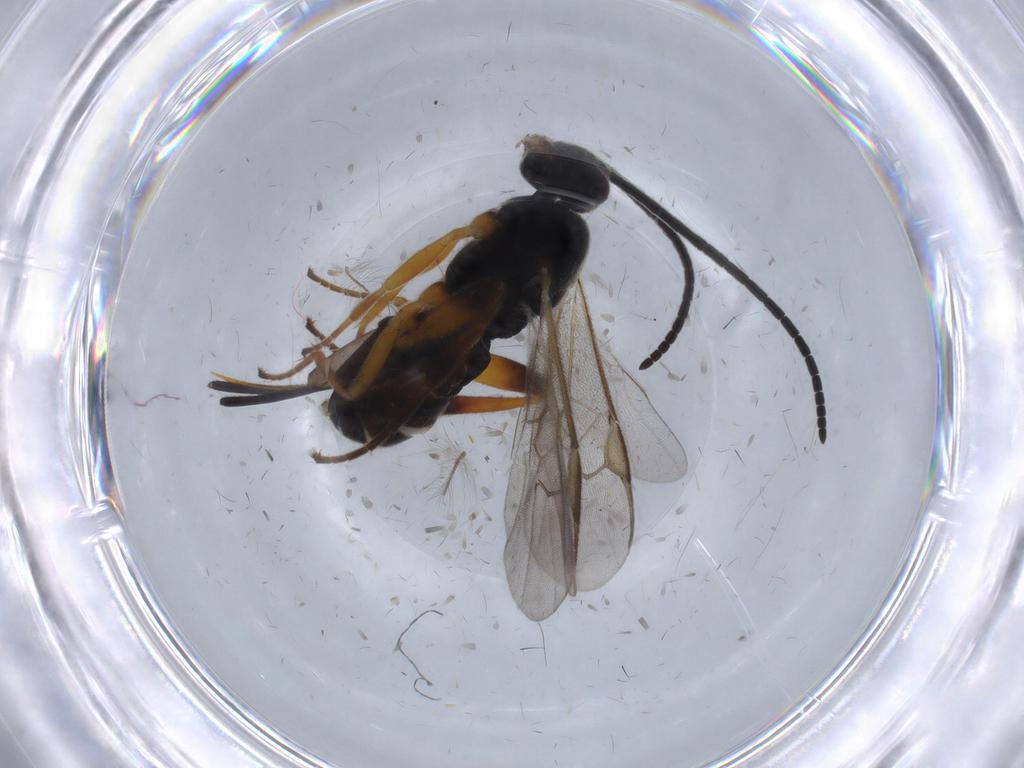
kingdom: Animalia
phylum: Arthropoda
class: Insecta
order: Hymenoptera
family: Braconidae
